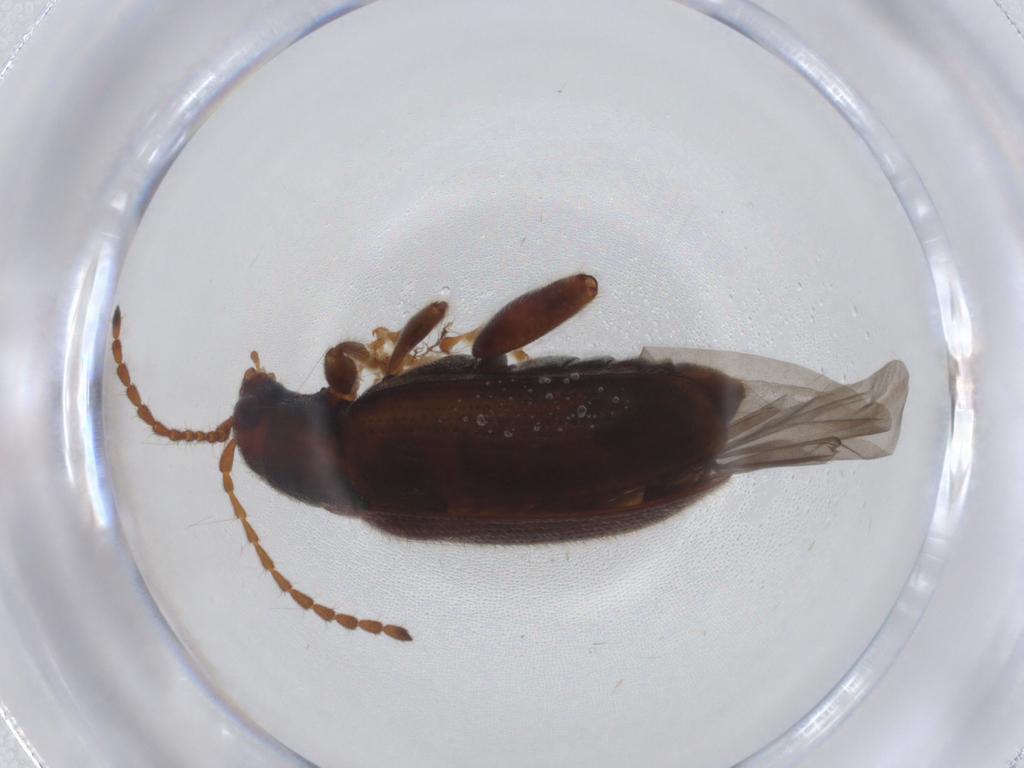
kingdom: Animalia
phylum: Arthropoda
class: Insecta
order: Coleoptera
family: Chrysomelidae
